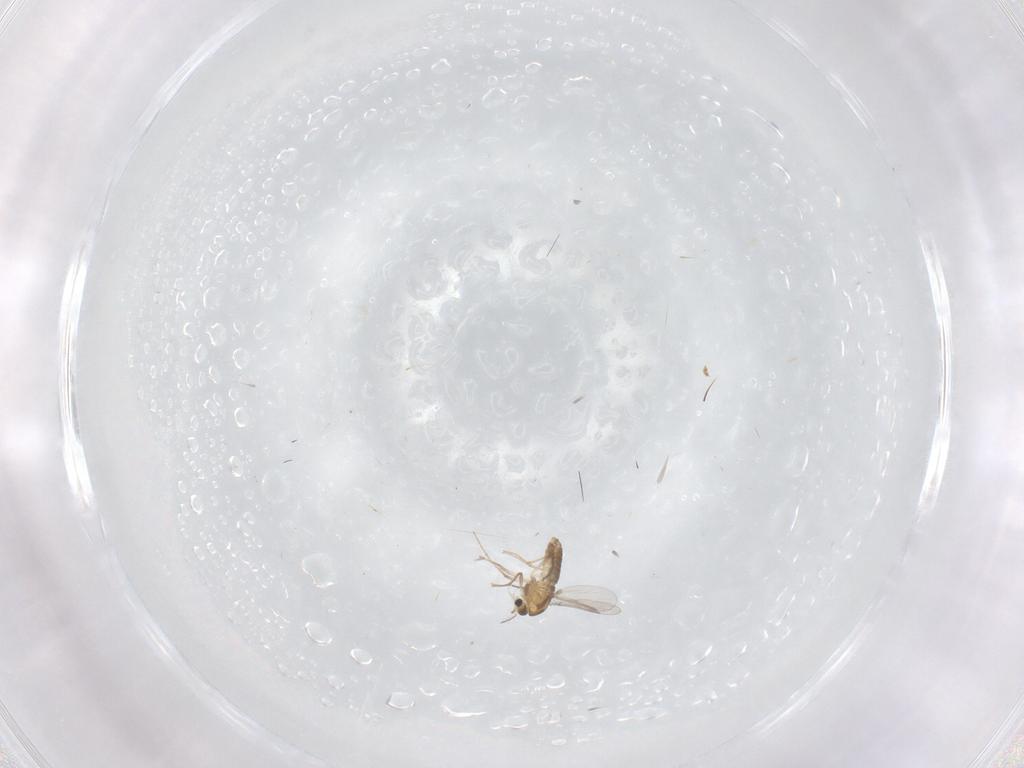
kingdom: Animalia
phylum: Arthropoda
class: Insecta
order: Diptera
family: Chironomidae
